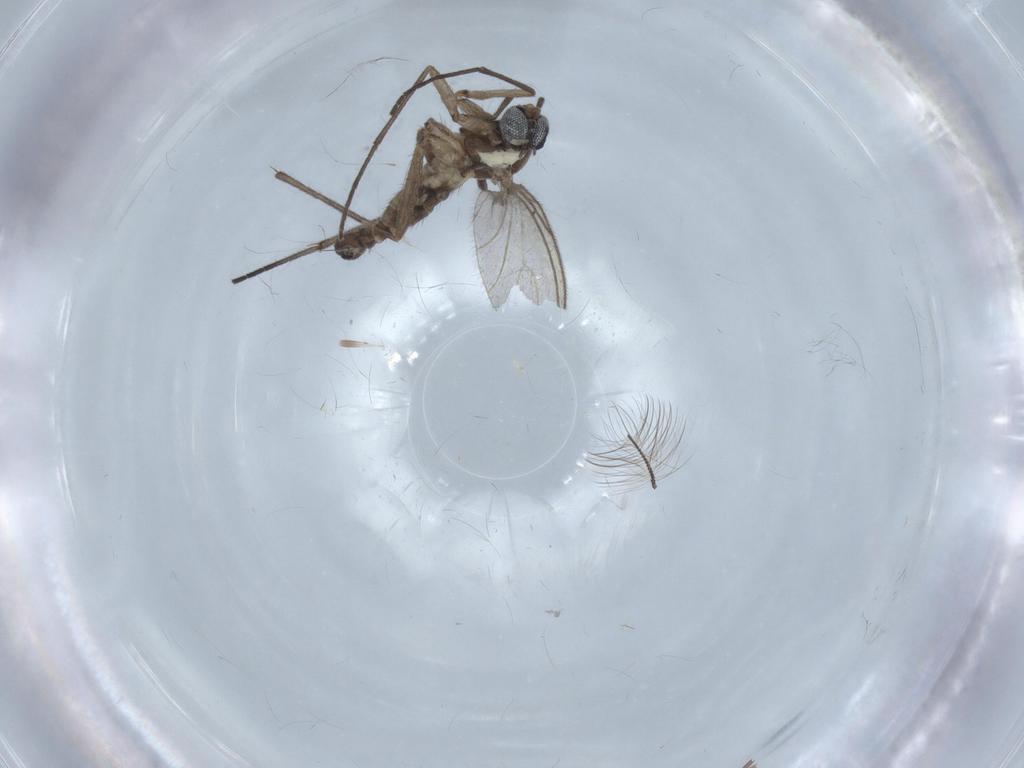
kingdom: Animalia
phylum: Arthropoda
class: Insecta
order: Diptera
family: Sciaridae
